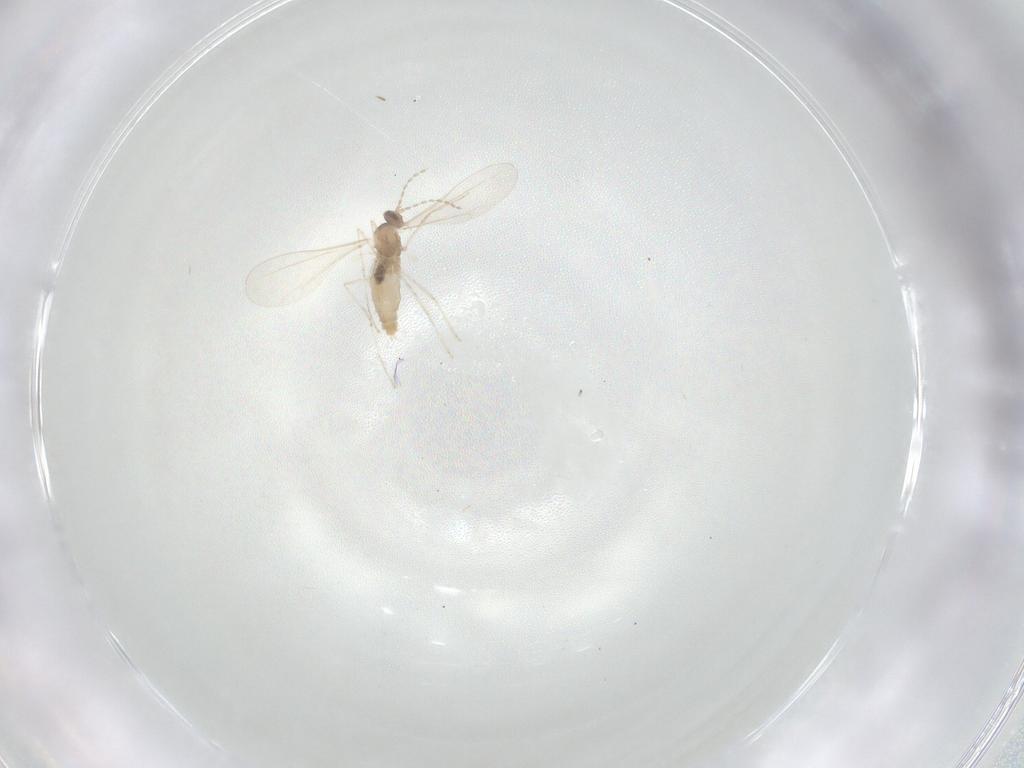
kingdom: Animalia
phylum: Arthropoda
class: Insecta
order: Diptera
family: Cecidomyiidae
